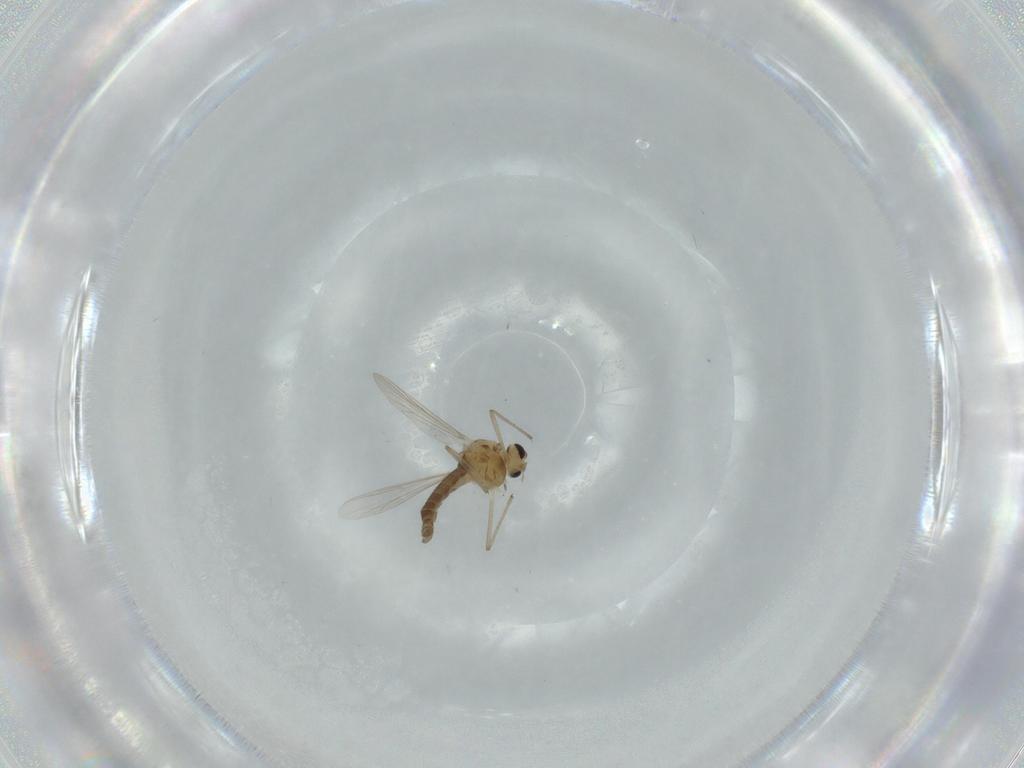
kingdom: Animalia
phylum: Arthropoda
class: Insecta
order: Diptera
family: Chironomidae
